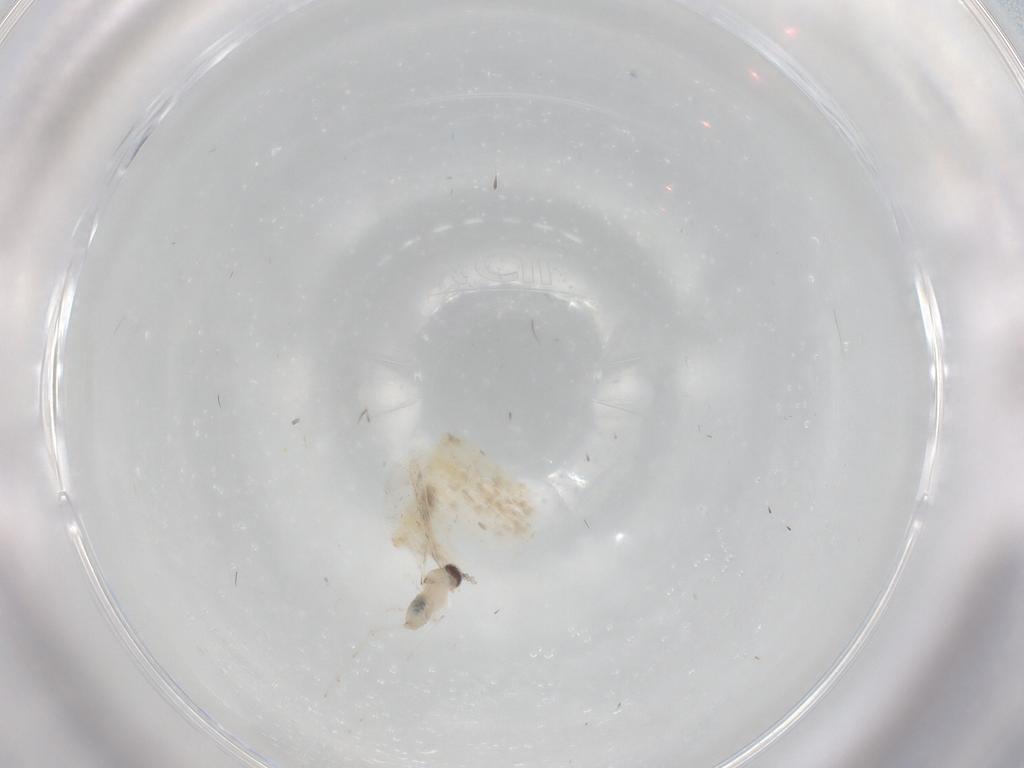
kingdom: Animalia
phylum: Arthropoda
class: Insecta
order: Diptera
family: Cecidomyiidae
